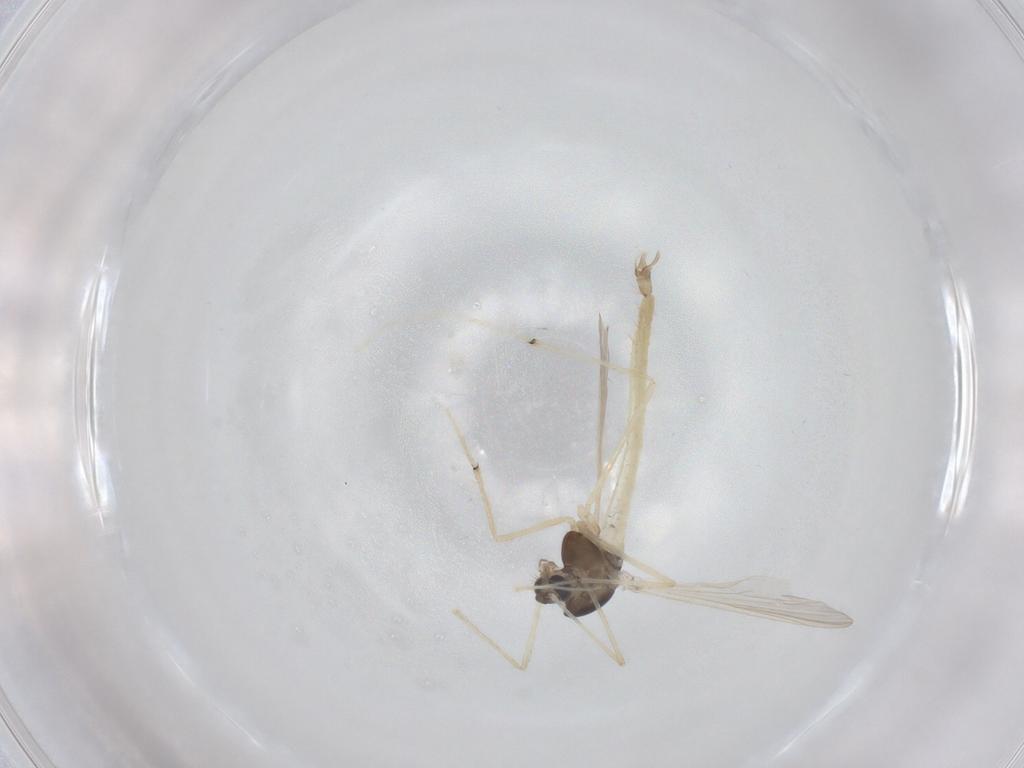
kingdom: Animalia
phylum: Arthropoda
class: Insecta
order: Diptera
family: Chironomidae
